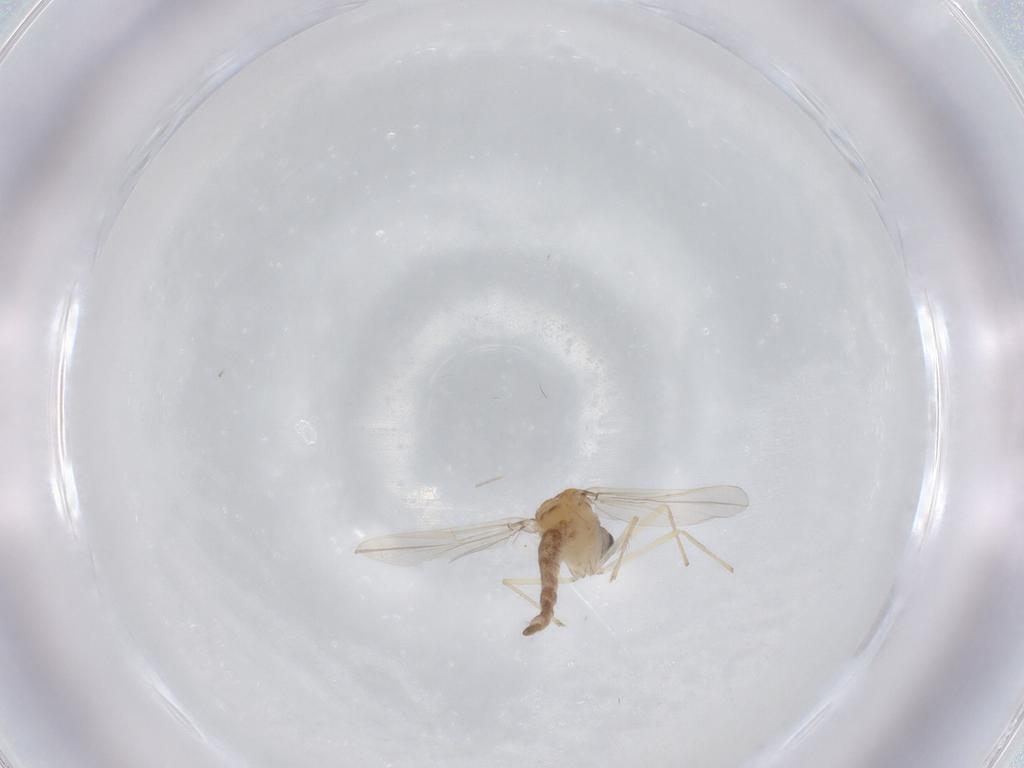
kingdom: Animalia
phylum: Arthropoda
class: Insecta
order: Diptera
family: Chironomidae
